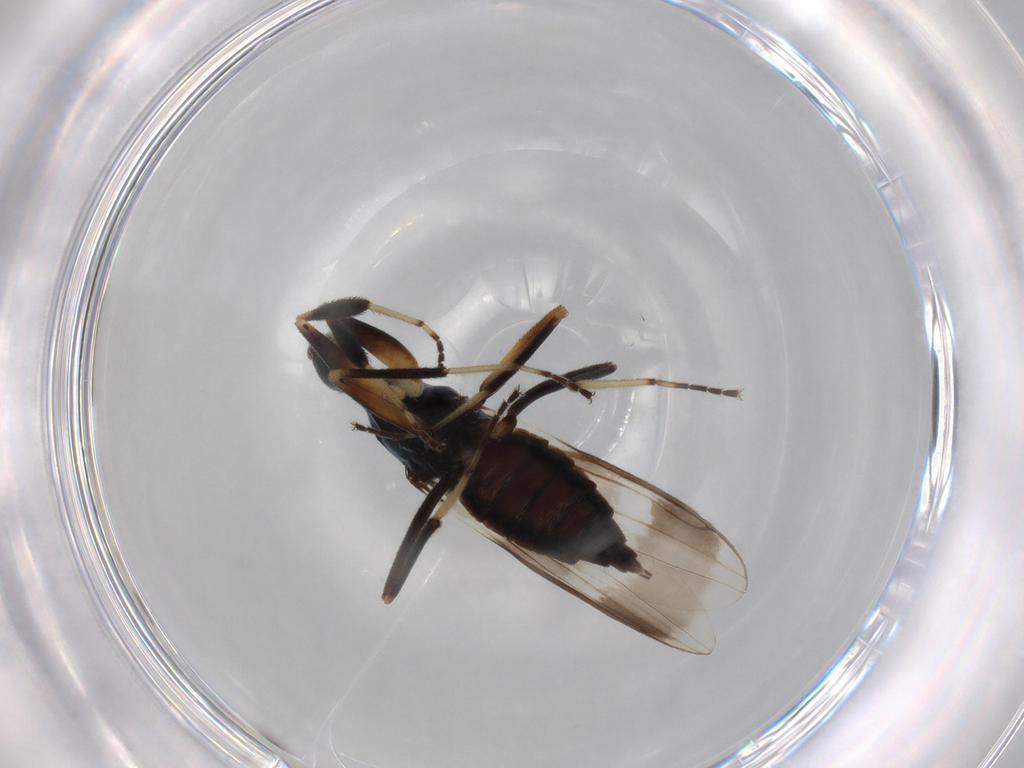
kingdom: Animalia
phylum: Arthropoda
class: Insecta
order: Diptera
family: Hybotidae
